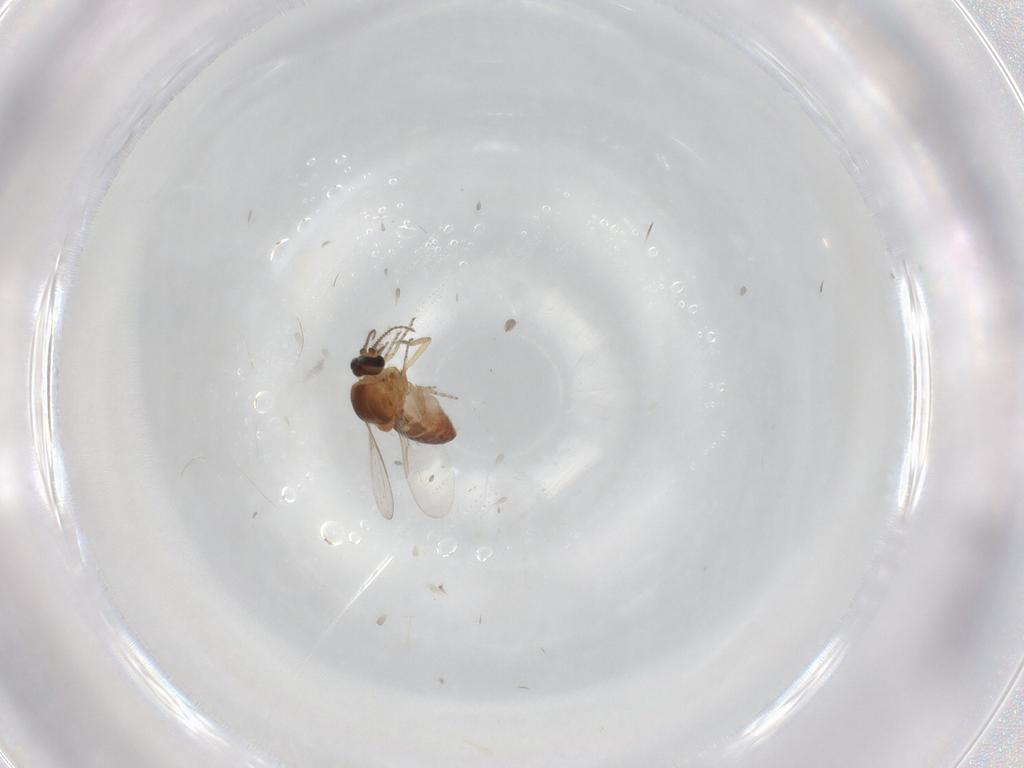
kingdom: Animalia
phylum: Arthropoda
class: Insecta
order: Diptera
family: Ceratopogonidae
